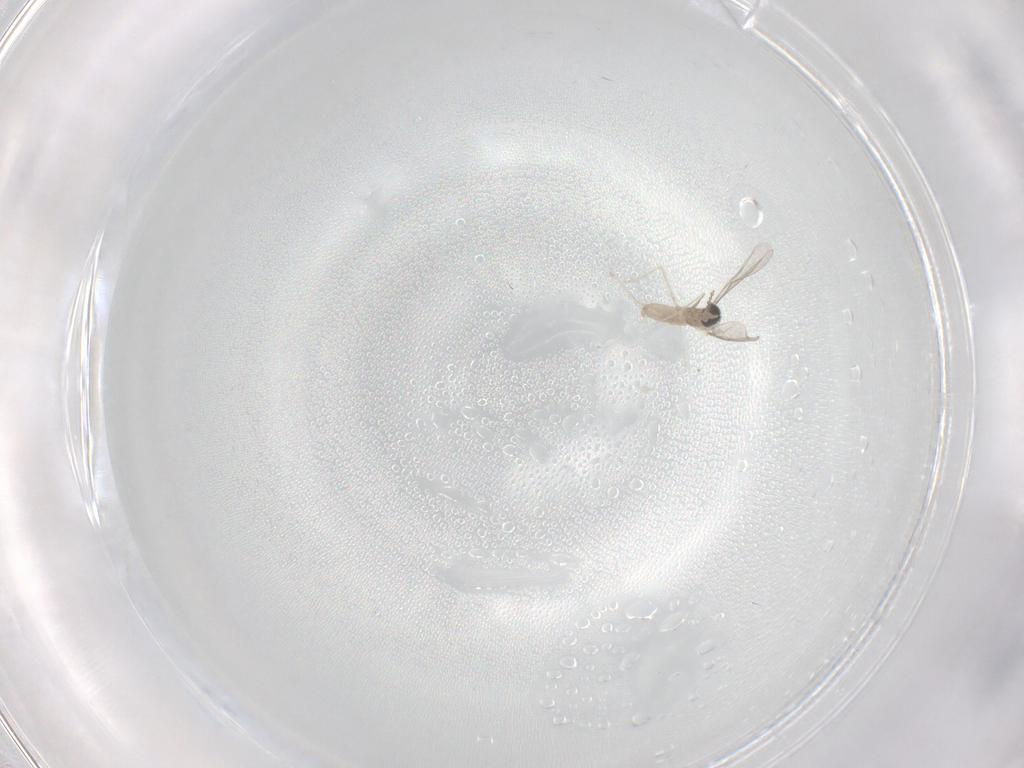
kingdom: Animalia
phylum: Arthropoda
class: Insecta
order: Diptera
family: Cecidomyiidae
